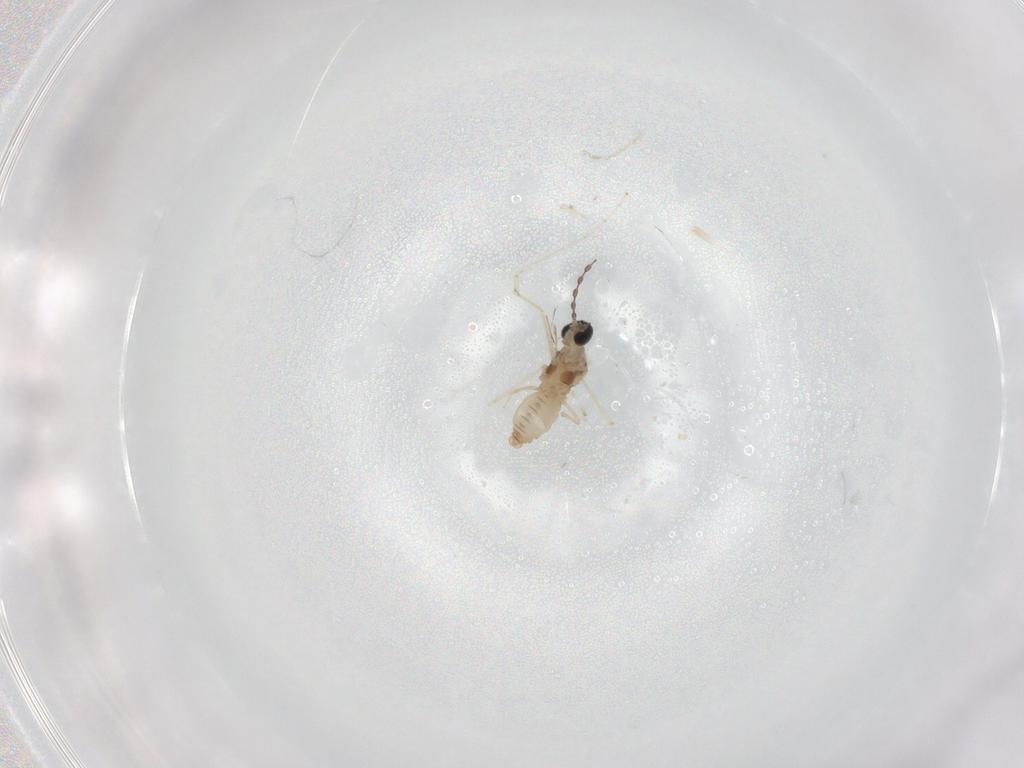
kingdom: Animalia
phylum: Arthropoda
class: Insecta
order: Diptera
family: Cecidomyiidae
